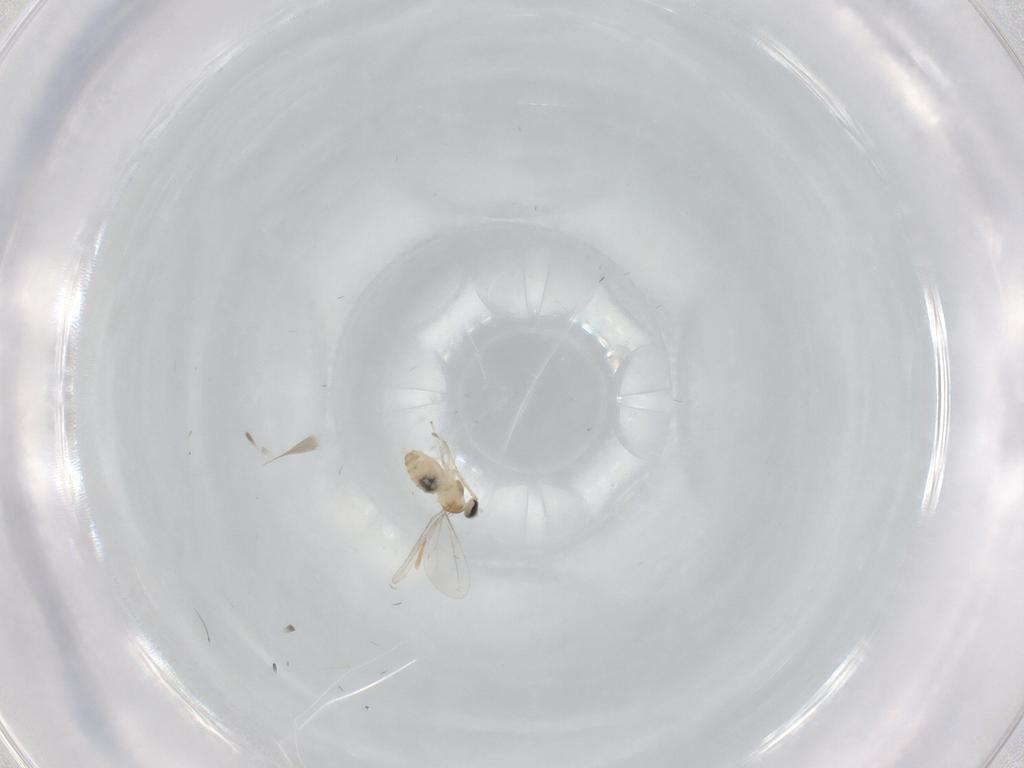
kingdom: Animalia
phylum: Arthropoda
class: Insecta
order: Diptera
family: Cecidomyiidae
